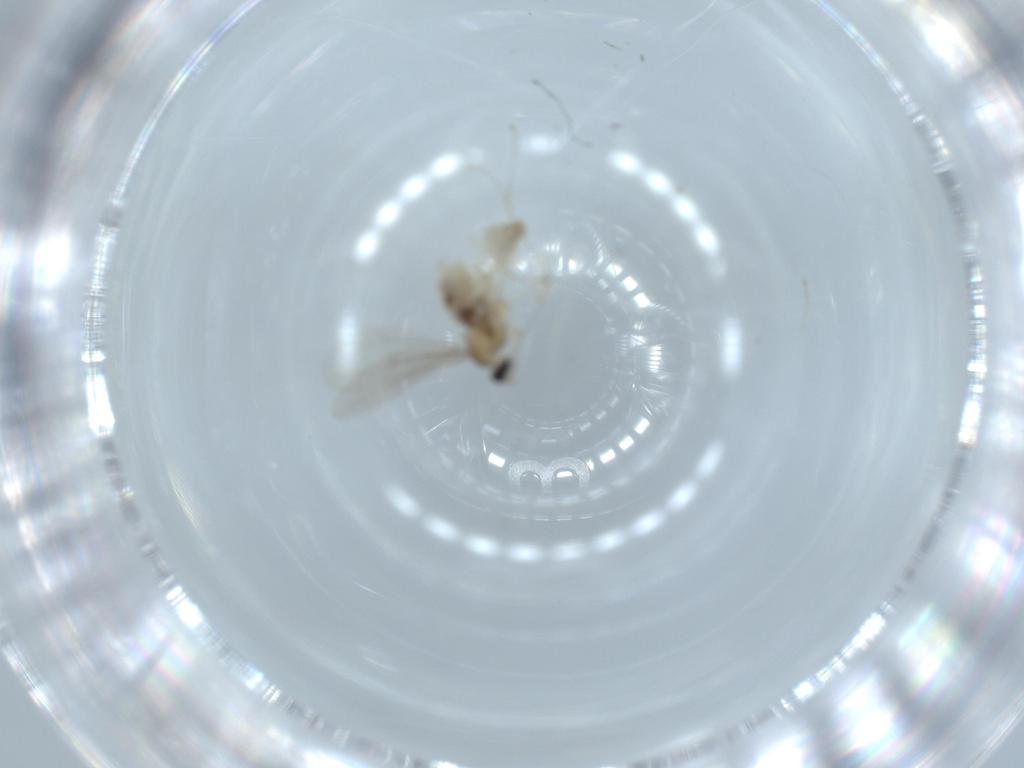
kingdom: Animalia
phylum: Arthropoda
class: Insecta
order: Diptera
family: Cecidomyiidae
